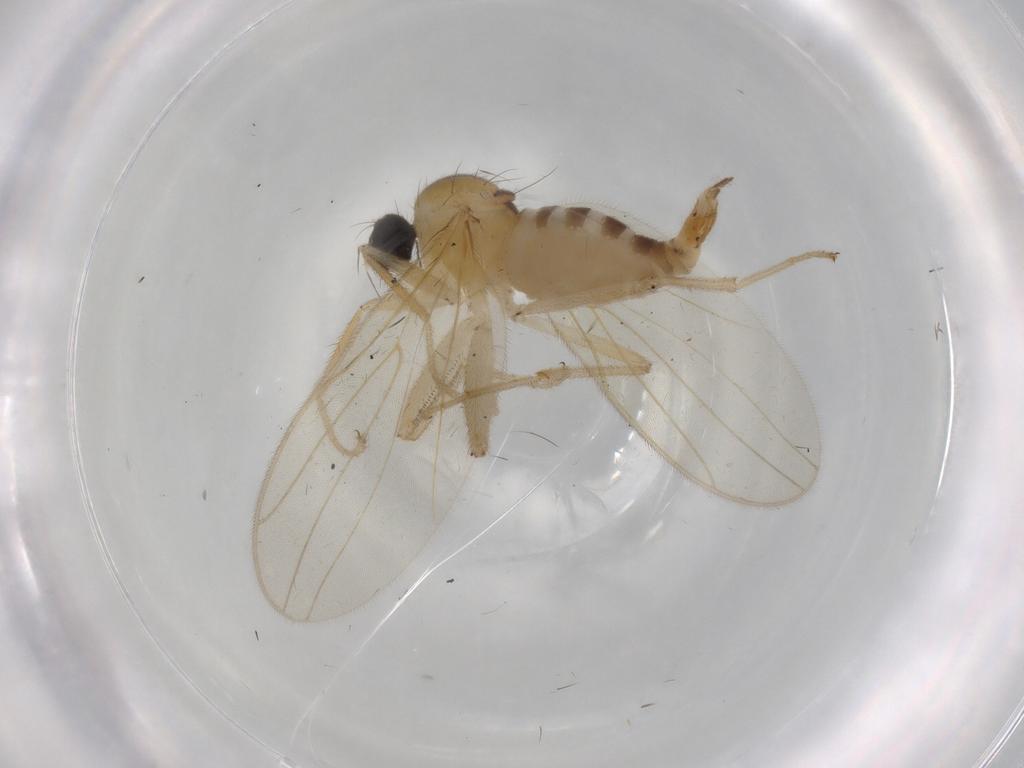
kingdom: Animalia
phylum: Arthropoda
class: Insecta
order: Diptera
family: Hybotidae
